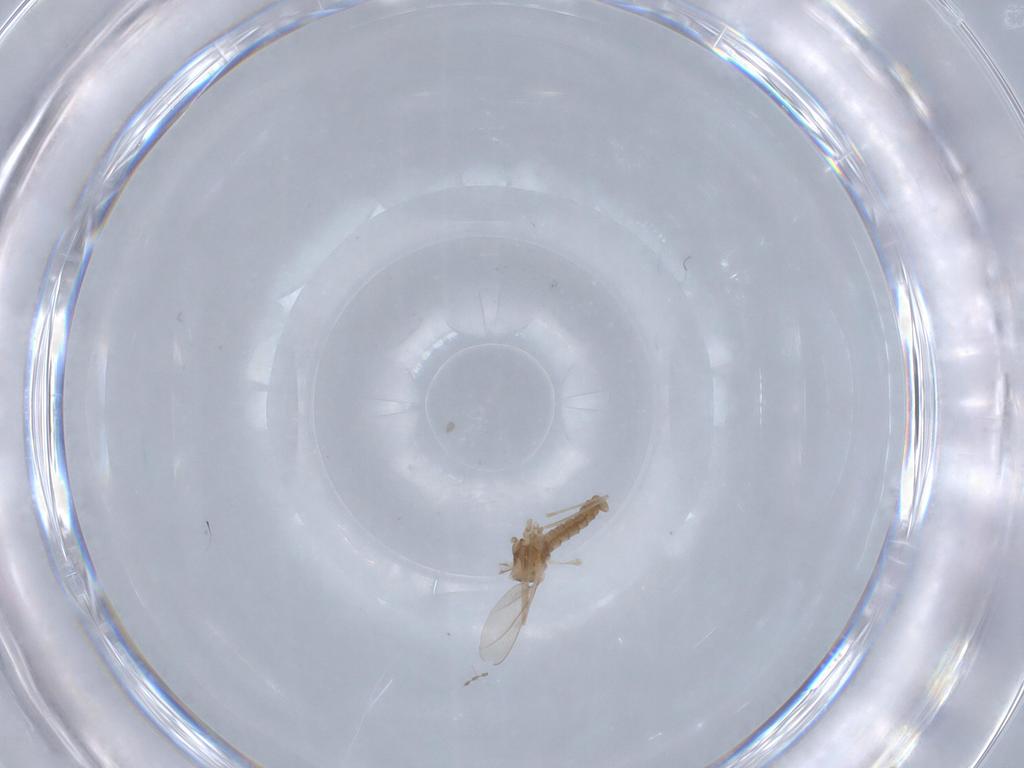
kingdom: Animalia
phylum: Arthropoda
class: Insecta
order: Diptera
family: Cecidomyiidae
